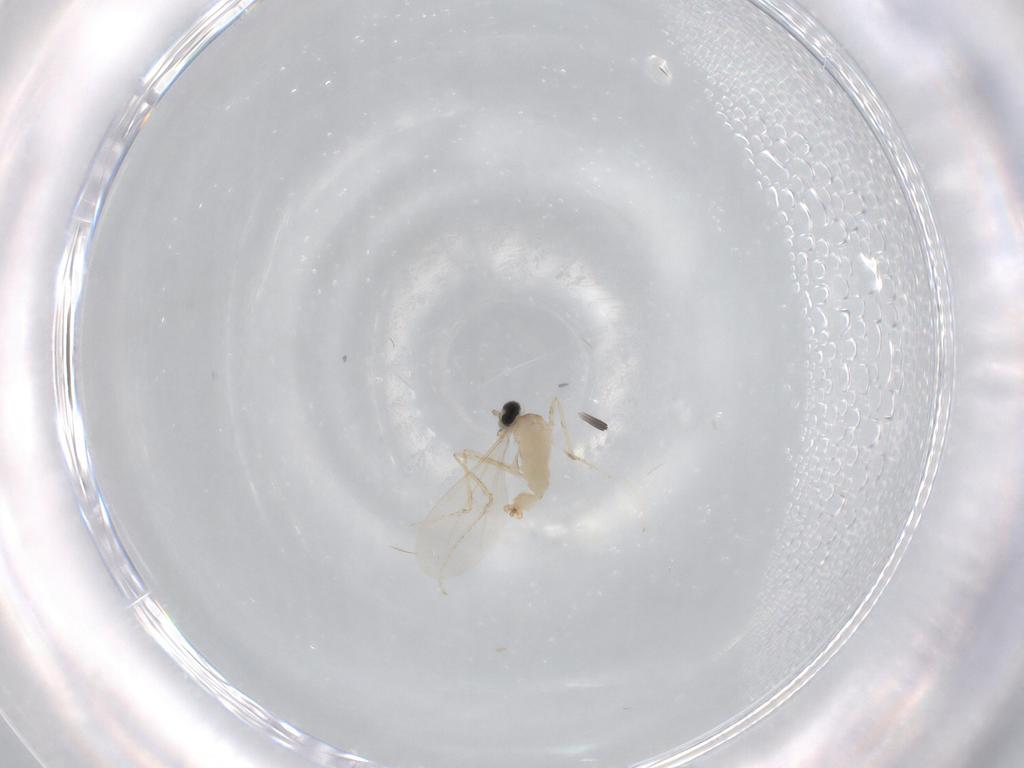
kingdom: Animalia
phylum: Arthropoda
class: Insecta
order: Diptera
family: Cecidomyiidae
